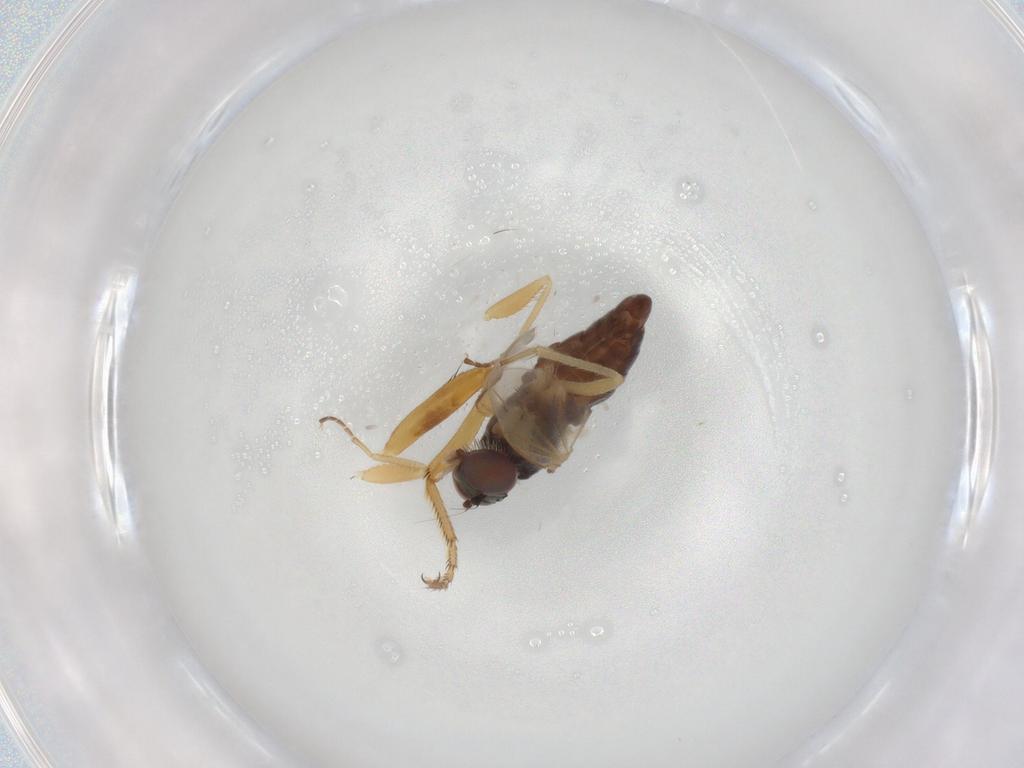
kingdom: Animalia
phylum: Arthropoda
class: Insecta
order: Diptera
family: Dolichopodidae
